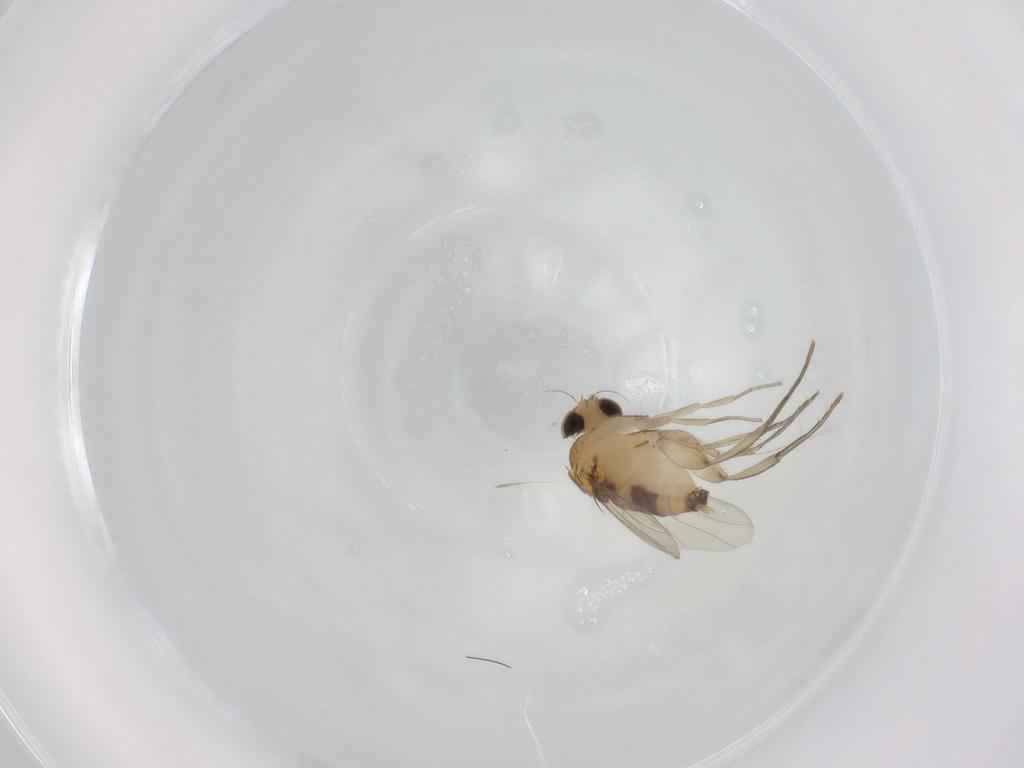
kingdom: Animalia
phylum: Arthropoda
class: Insecta
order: Diptera
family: Phoridae
